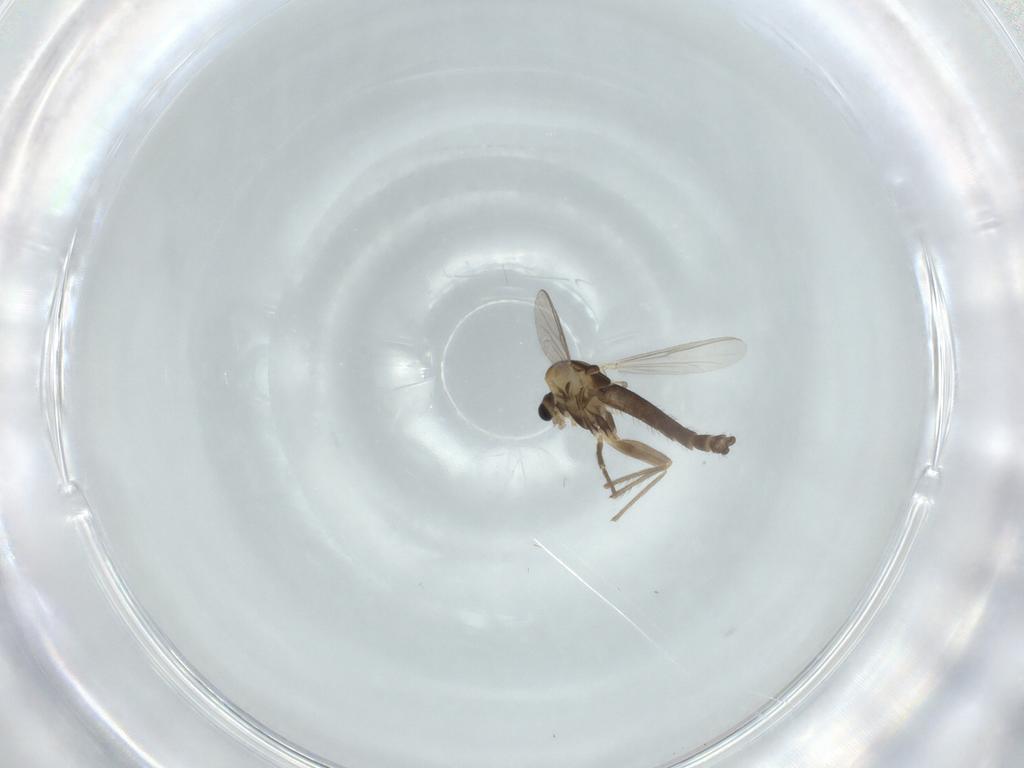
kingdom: Animalia
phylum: Arthropoda
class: Insecta
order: Diptera
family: Chironomidae
